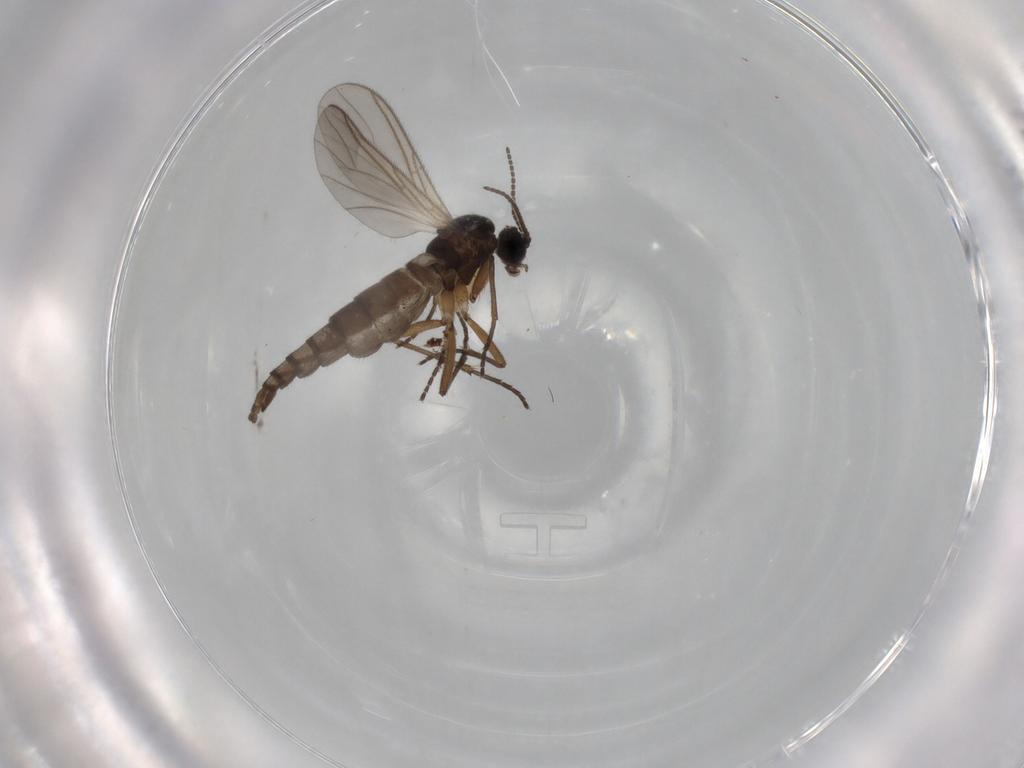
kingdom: Animalia
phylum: Arthropoda
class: Insecta
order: Diptera
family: Sciaridae
